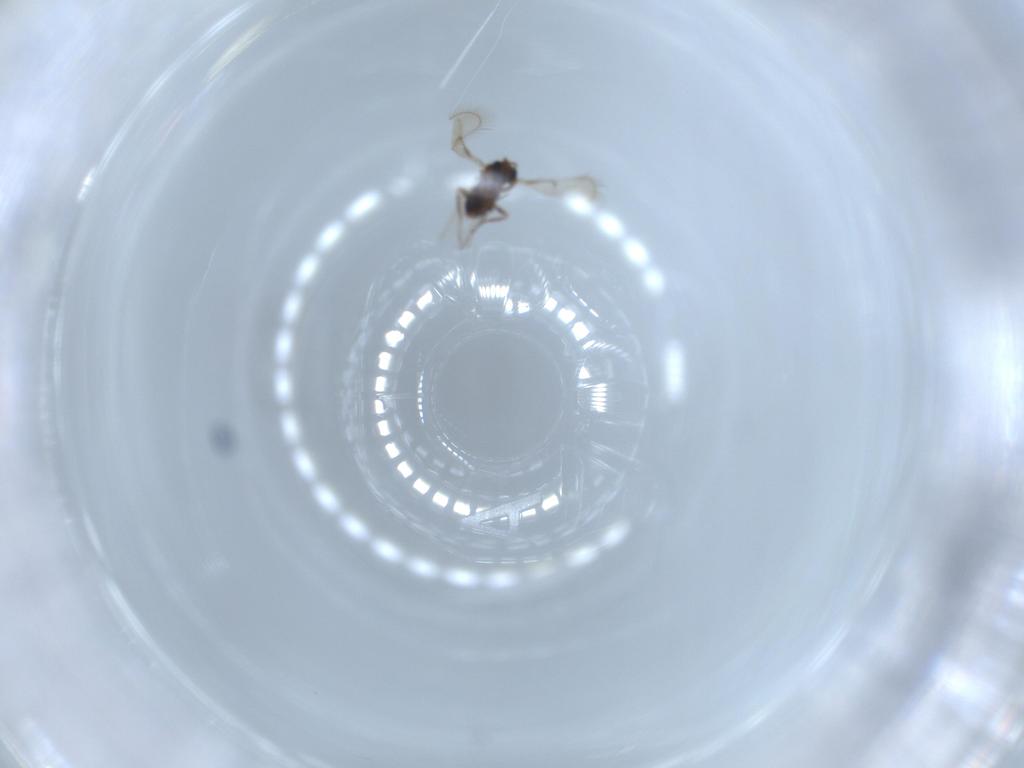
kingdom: Animalia
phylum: Arthropoda
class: Insecta
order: Hymenoptera
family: Trichogrammatidae
